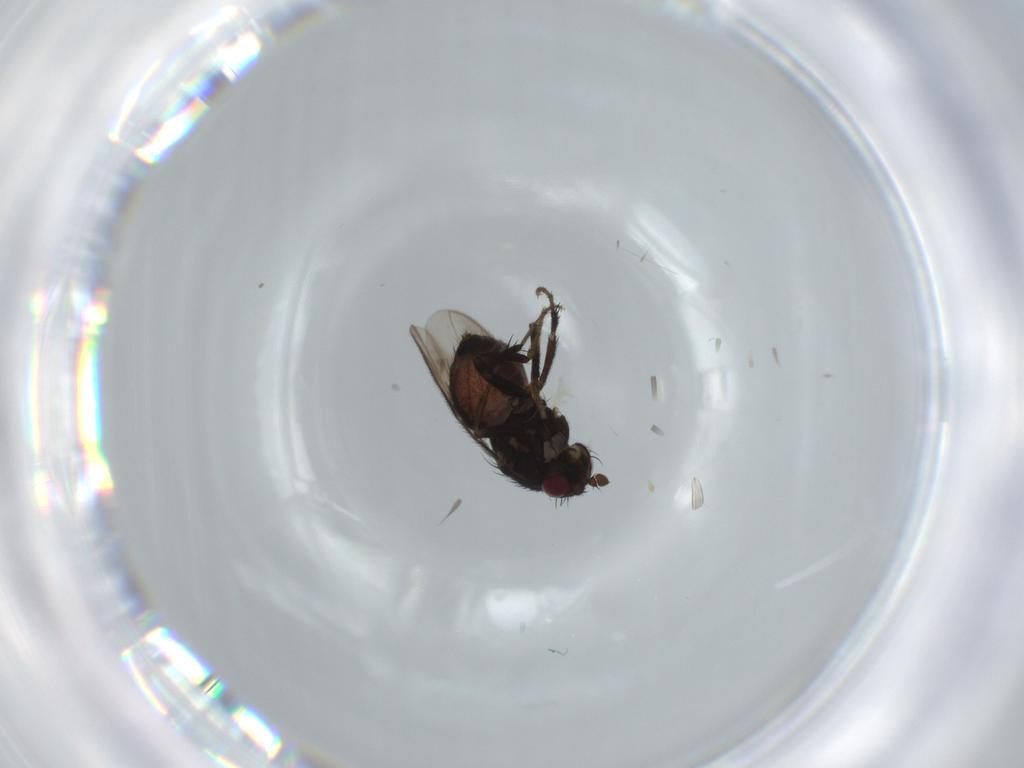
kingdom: Animalia
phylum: Arthropoda
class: Insecta
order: Diptera
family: Sphaeroceridae
